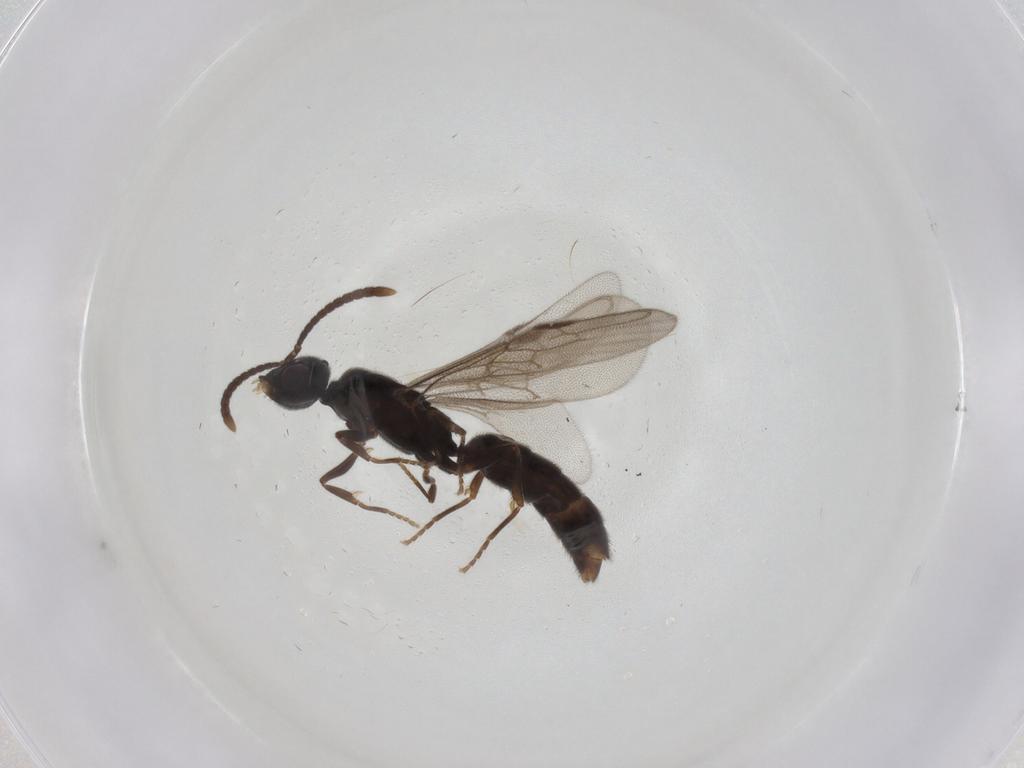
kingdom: Animalia
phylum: Arthropoda
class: Insecta
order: Hymenoptera
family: Formicidae
